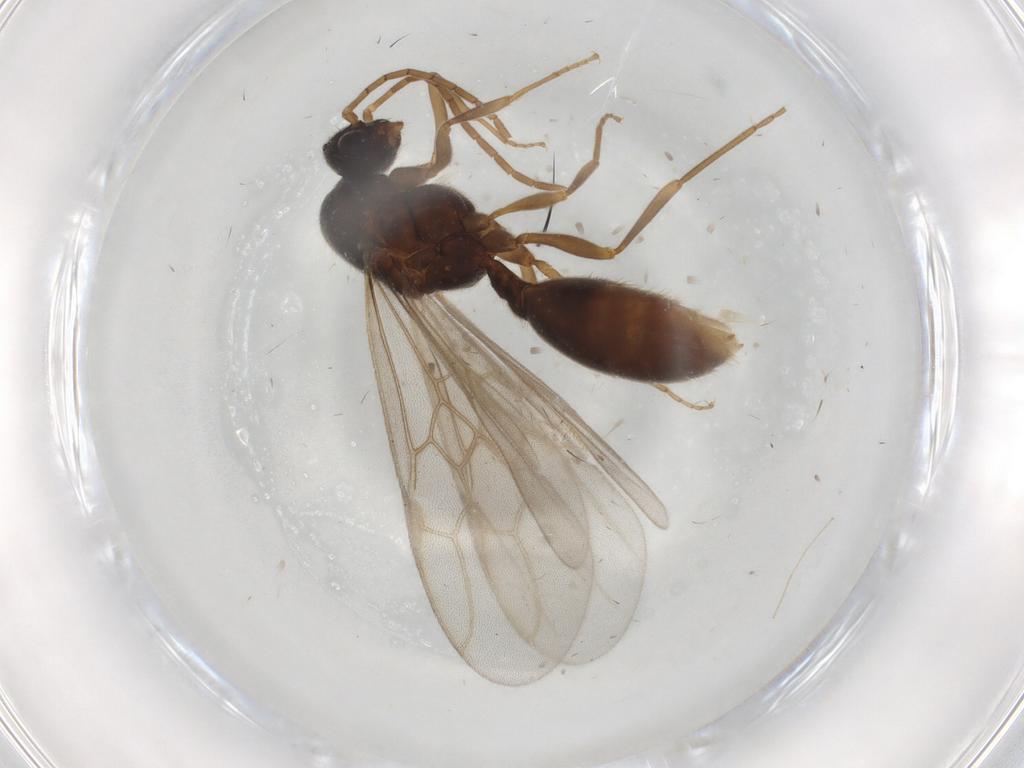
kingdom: Animalia
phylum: Arthropoda
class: Insecta
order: Hymenoptera
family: Formicidae
